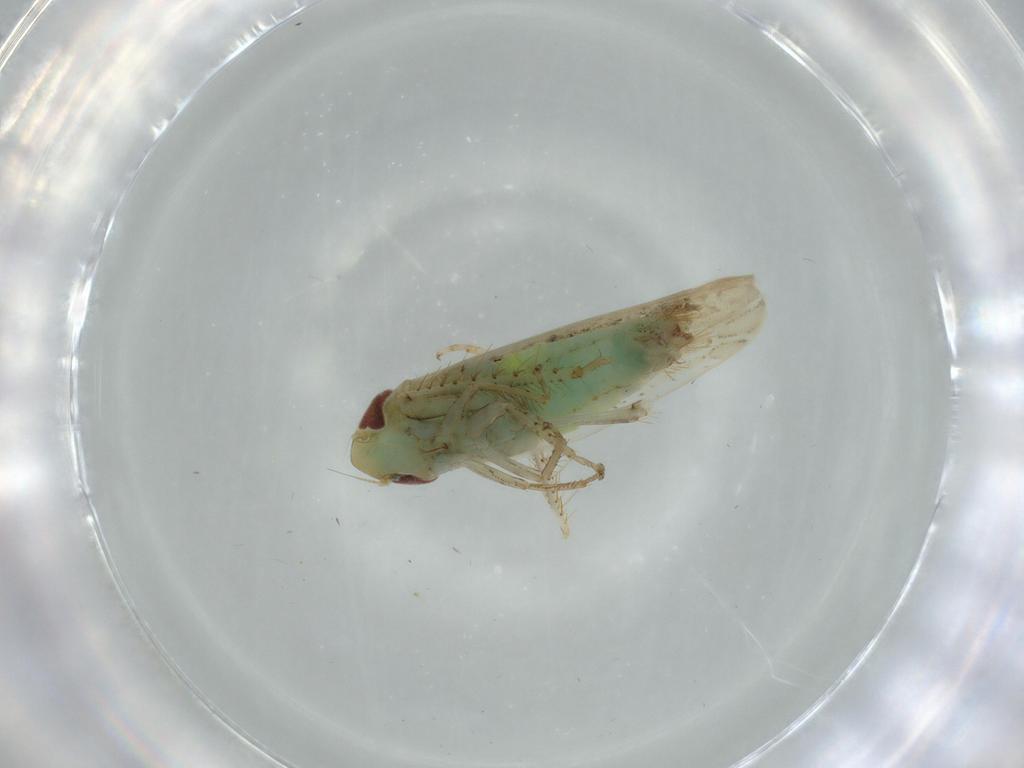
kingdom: Animalia
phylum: Arthropoda
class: Insecta
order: Hemiptera
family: Cicadellidae
